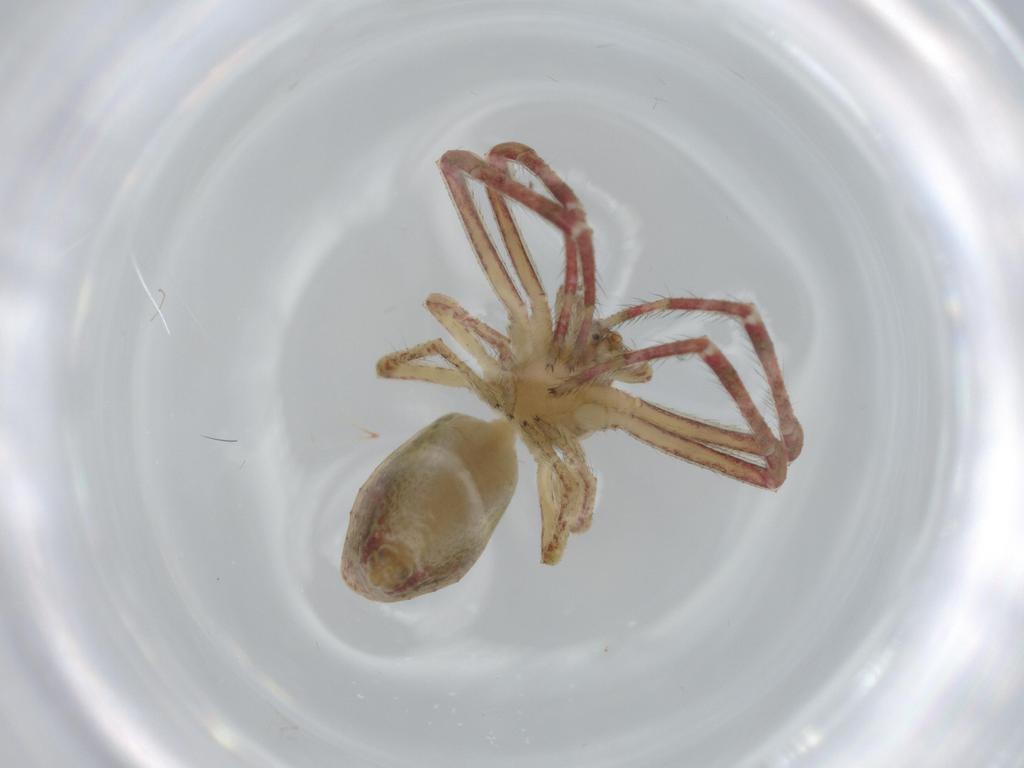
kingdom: Animalia
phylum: Arthropoda
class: Arachnida
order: Araneae
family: Thomisidae
